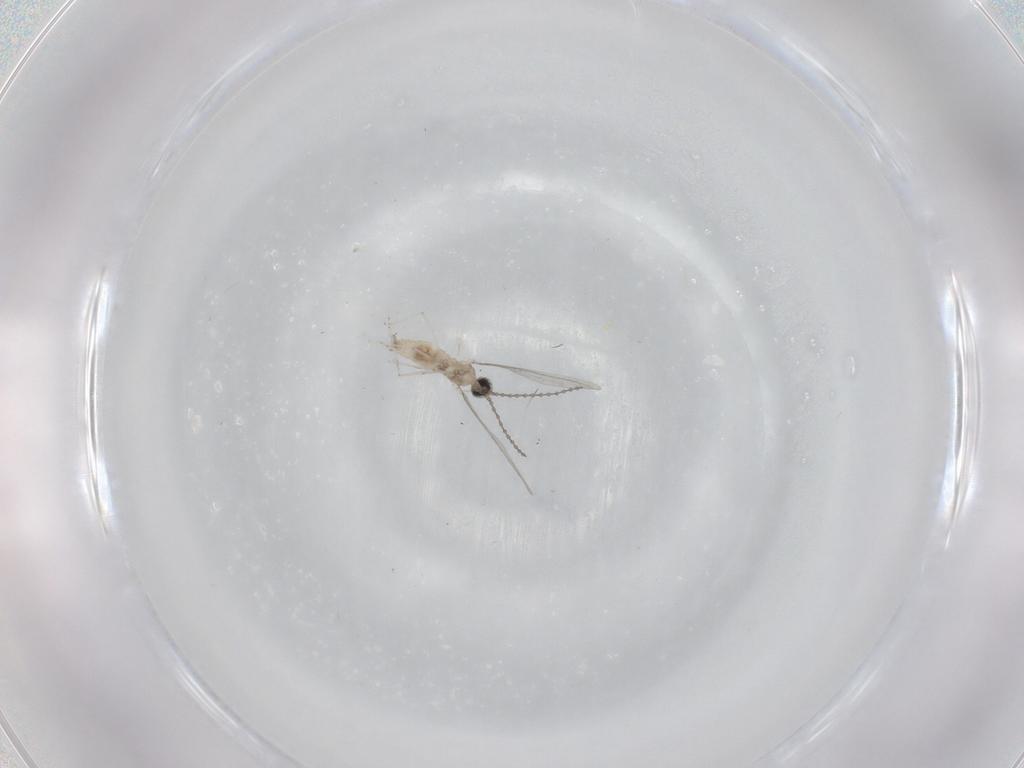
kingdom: Animalia
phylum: Arthropoda
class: Insecta
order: Diptera
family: Cecidomyiidae
